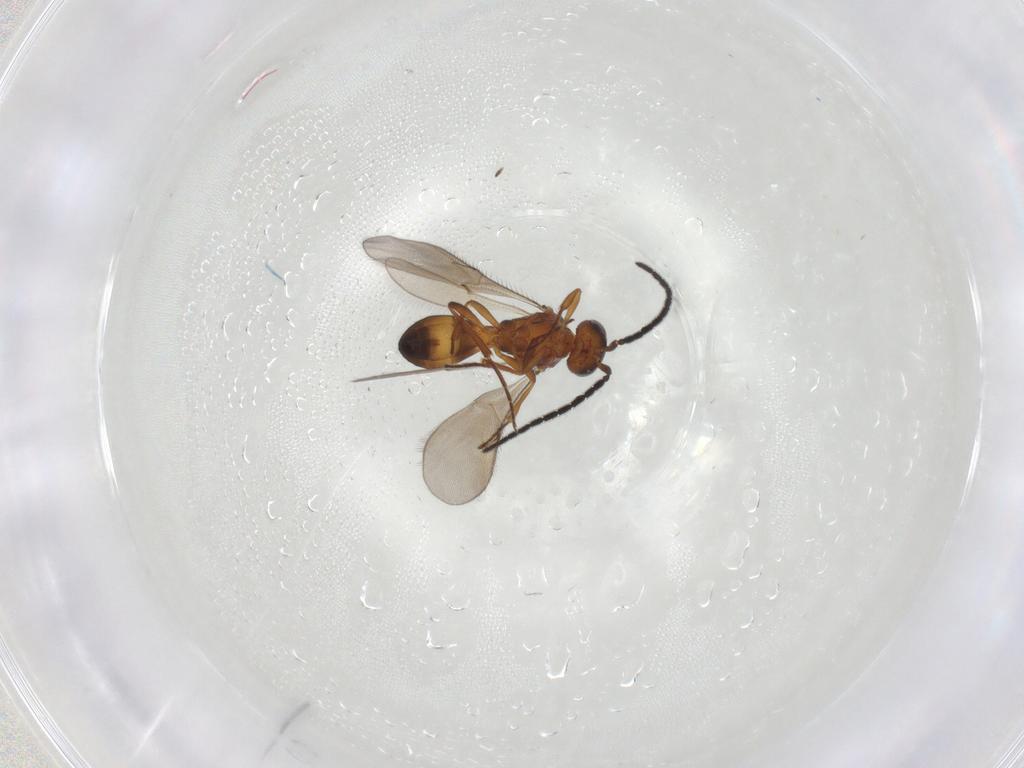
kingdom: Animalia
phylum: Arthropoda
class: Insecta
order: Hymenoptera
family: Scelionidae
